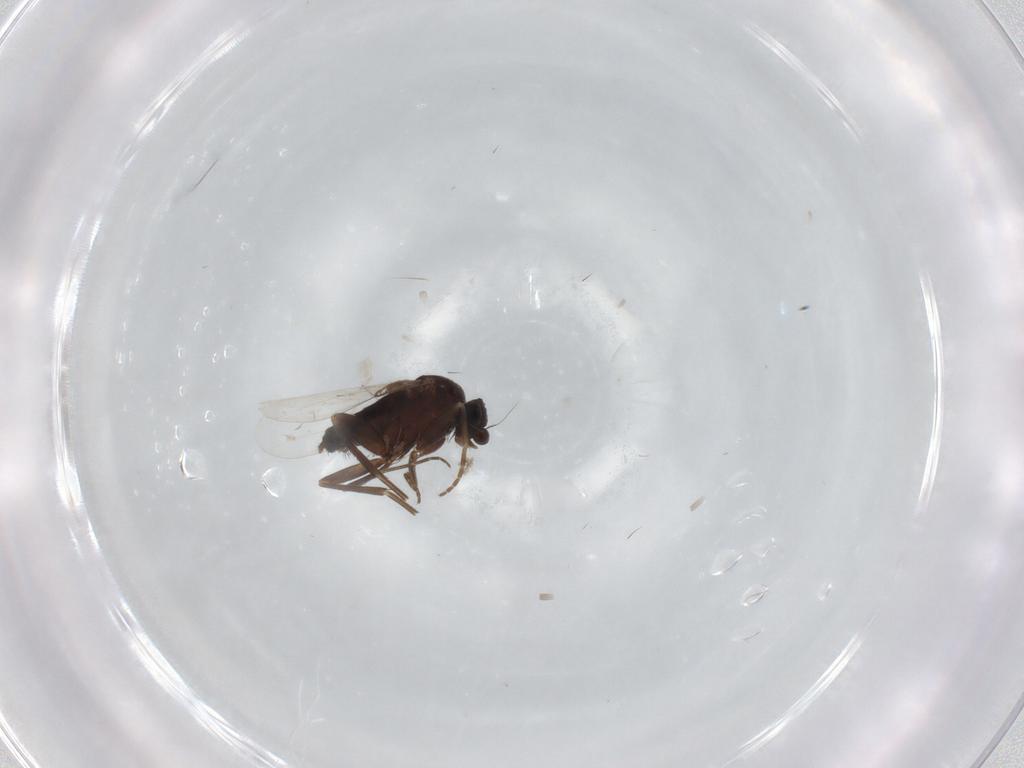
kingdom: Animalia
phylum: Arthropoda
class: Insecta
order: Diptera
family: Phoridae
